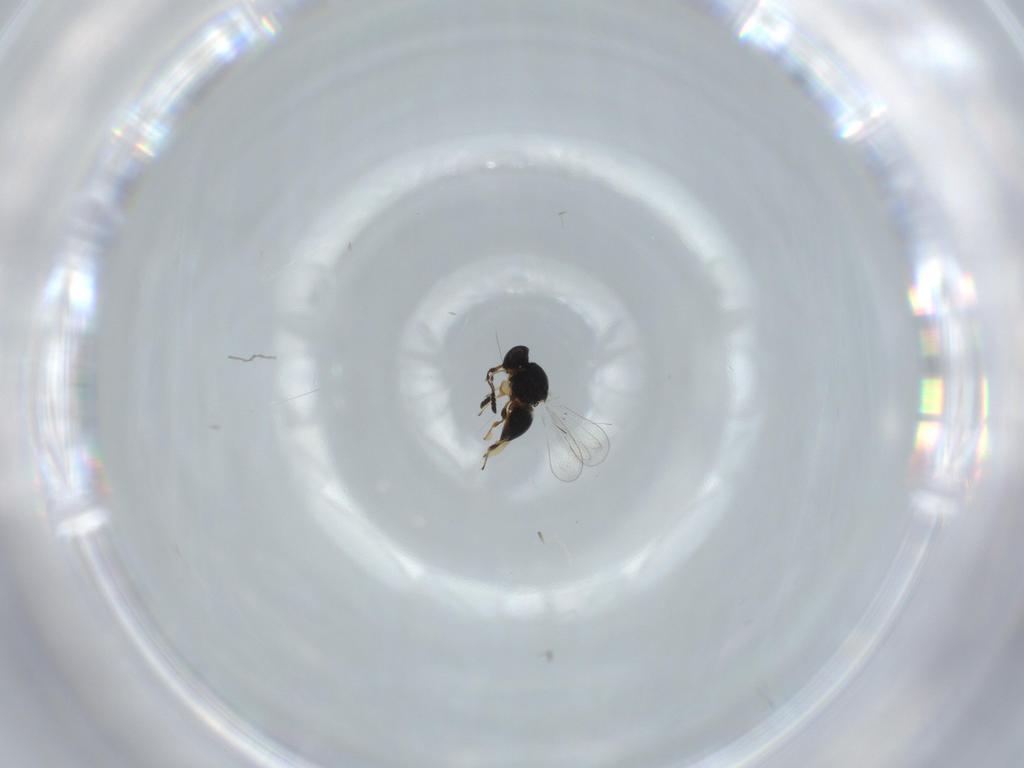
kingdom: Animalia
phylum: Arthropoda
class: Insecta
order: Hymenoptera
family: Platygastridae
